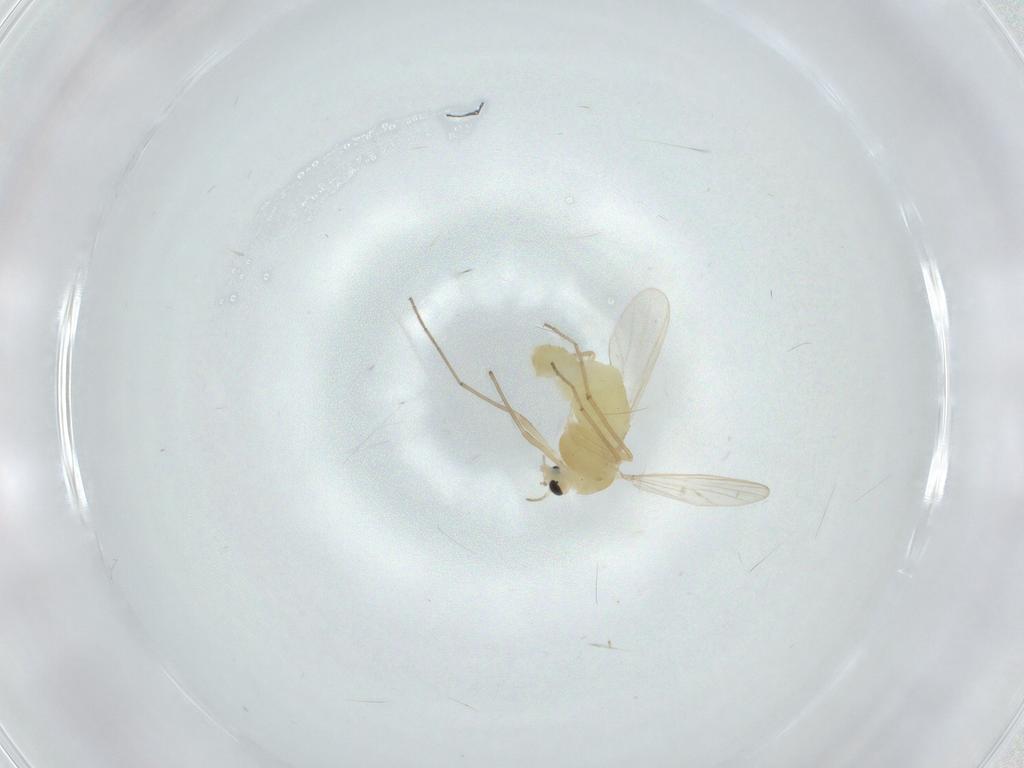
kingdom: Animalia
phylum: Arthropoda
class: Insecta
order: Diptera
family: Chironomidae
